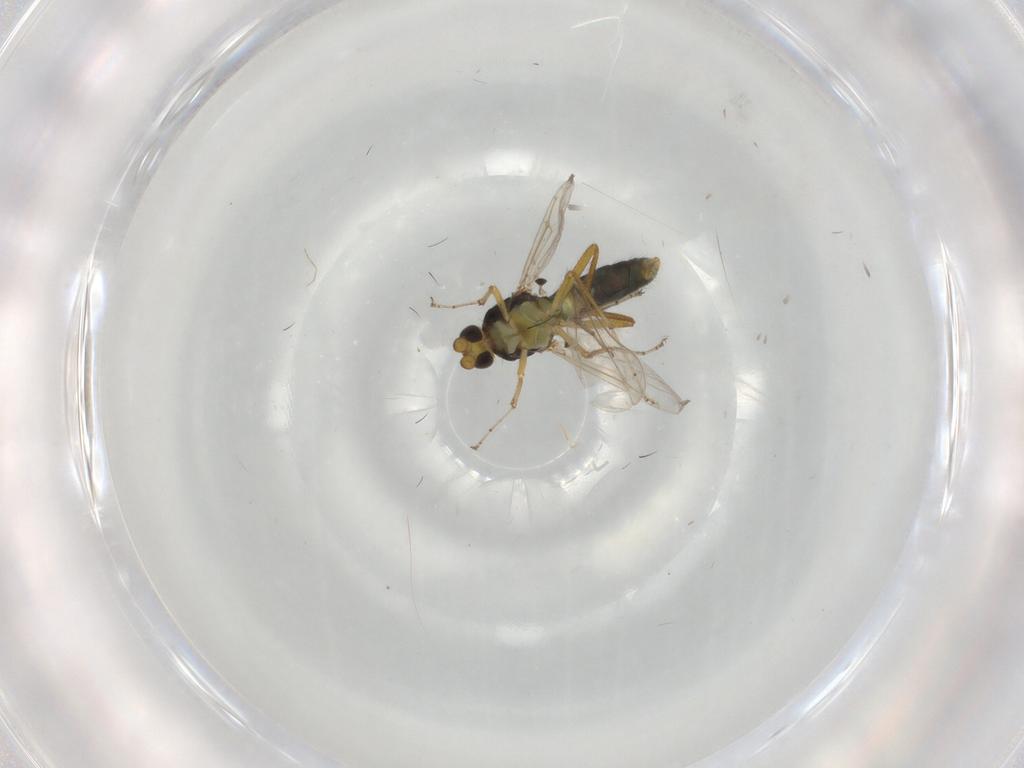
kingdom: Animalia
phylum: Arthropoda
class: Insecta
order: Diptera
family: Ceratopogonidae
